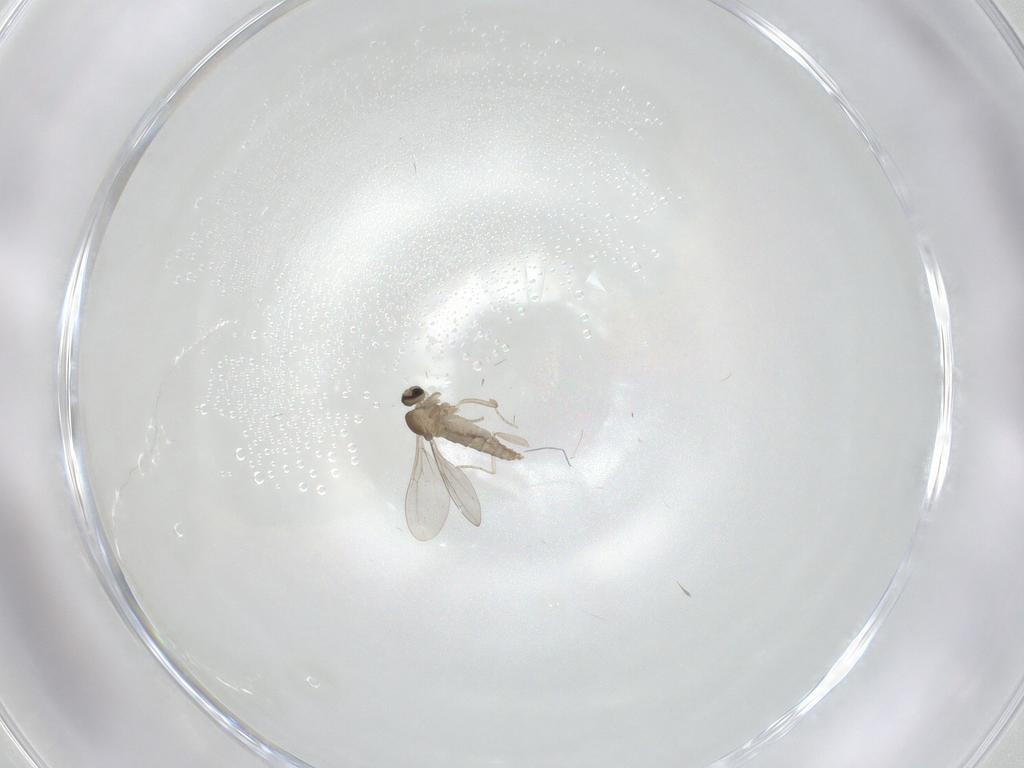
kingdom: Animalia
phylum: Arthropoda
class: Insecta
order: Diptera
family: Cecidomyiidae
